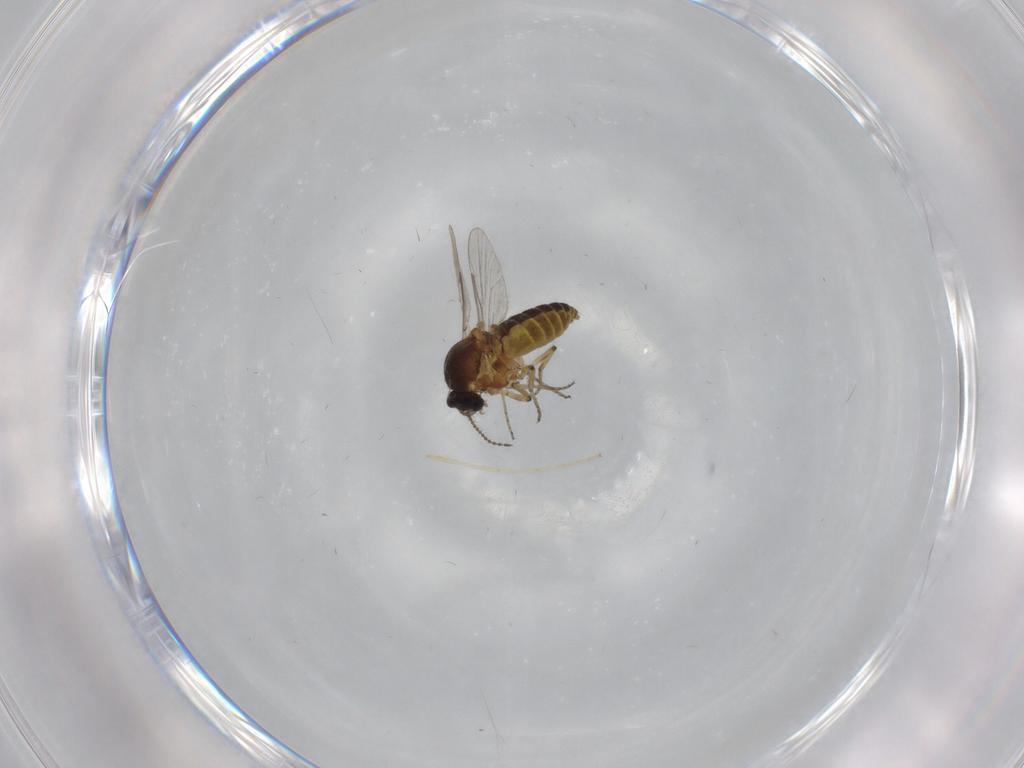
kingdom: Animalia
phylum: Arthropoda
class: Insecta
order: Diptera
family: Ceratopogonidae
